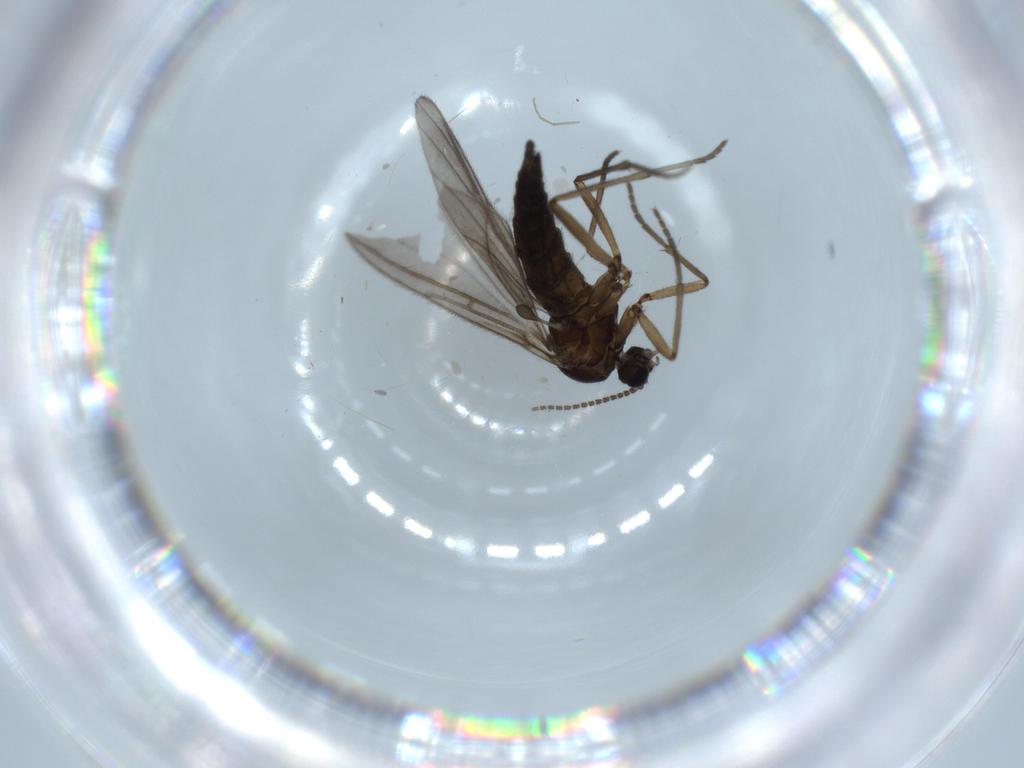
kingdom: Animalia
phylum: Arthropoda
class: Insecta
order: Diptera
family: Sciaridae
